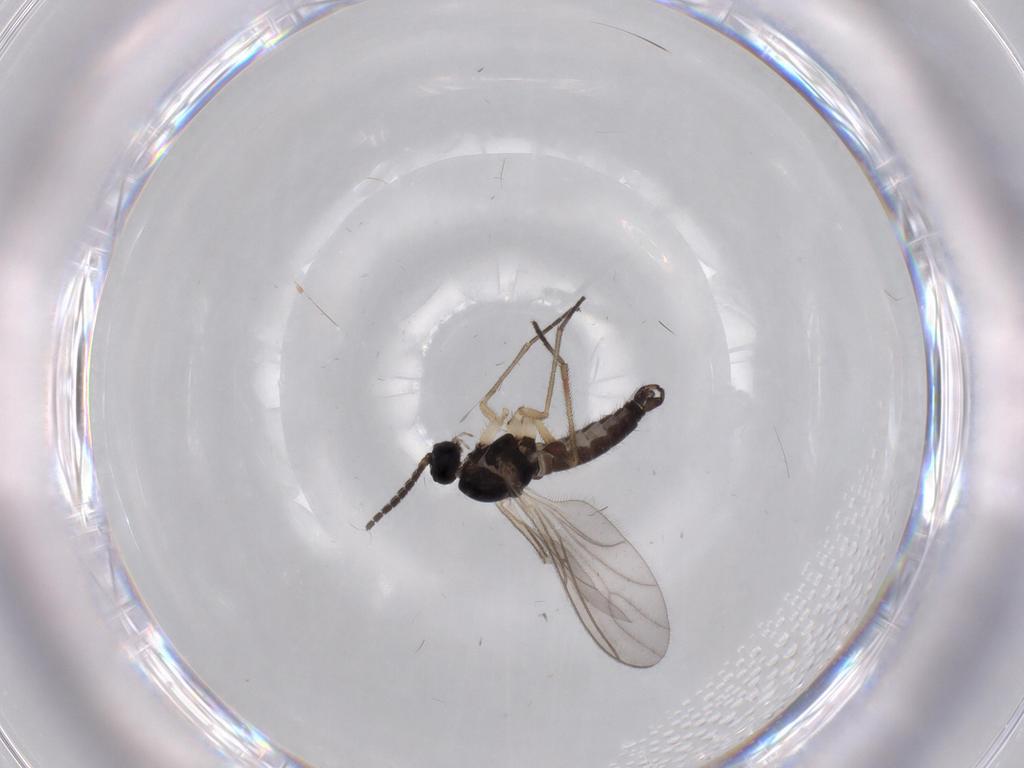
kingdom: Animalia
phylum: Arthropoda
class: Insecta
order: Diptera
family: Sciaridae
